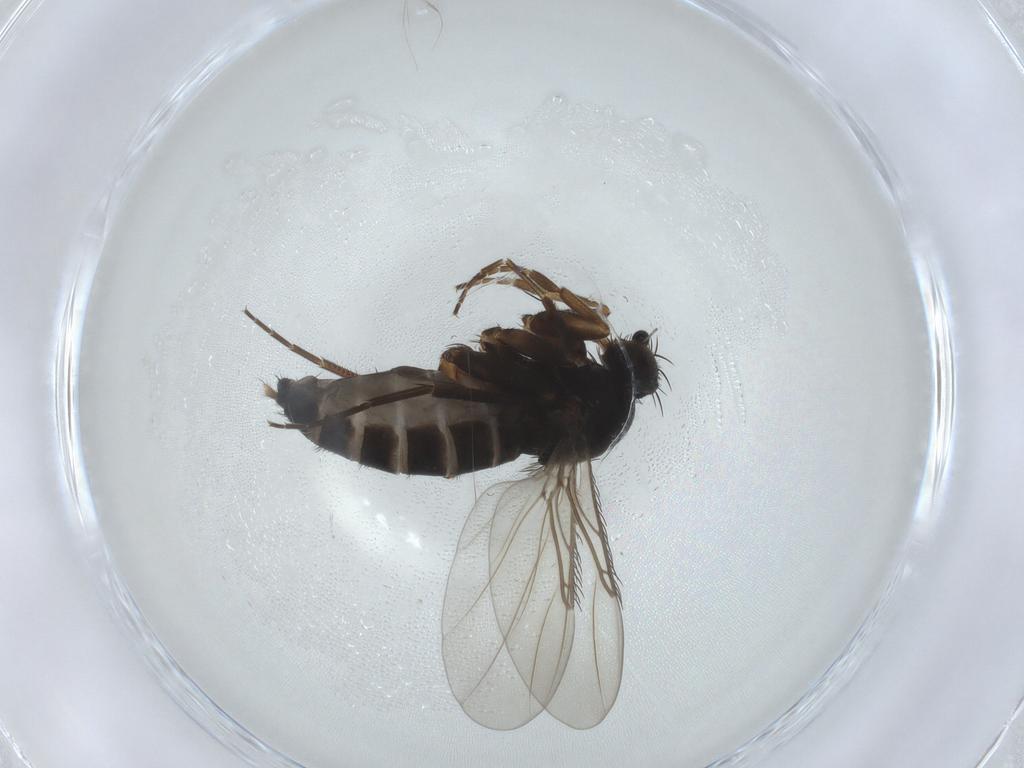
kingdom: Animalia
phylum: Arthropoda
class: Insecta
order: Diptera
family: Phoridae
